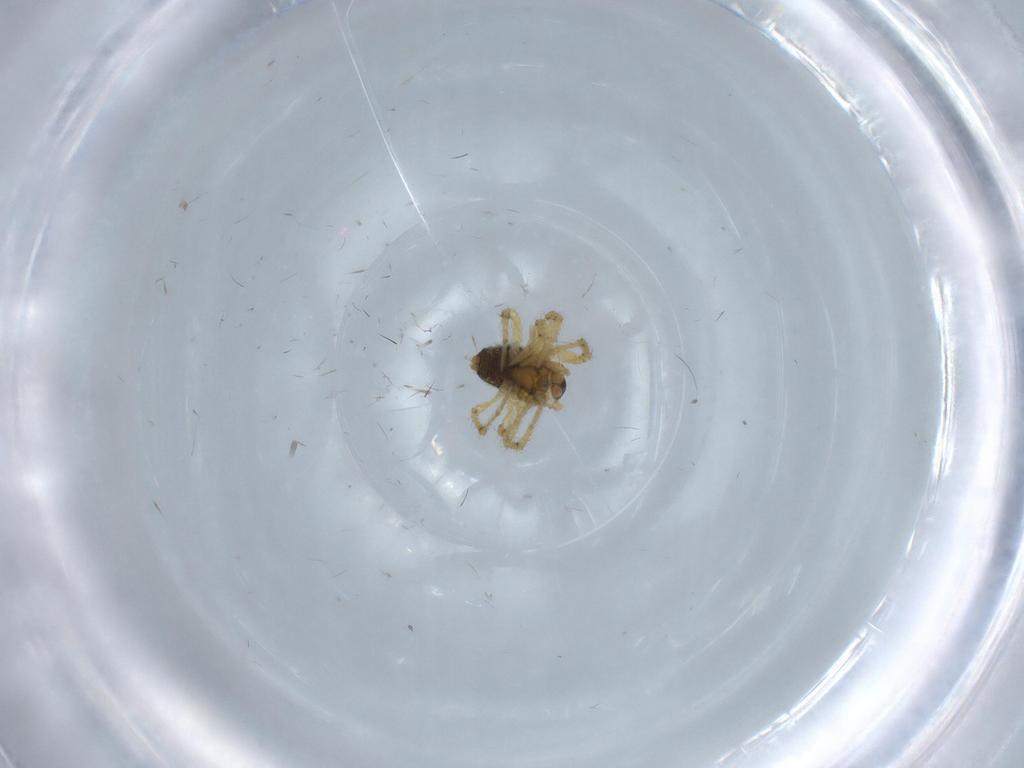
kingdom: Animalia
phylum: Arthropoda
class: Arachnida
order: Araneae
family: Theridiidae
